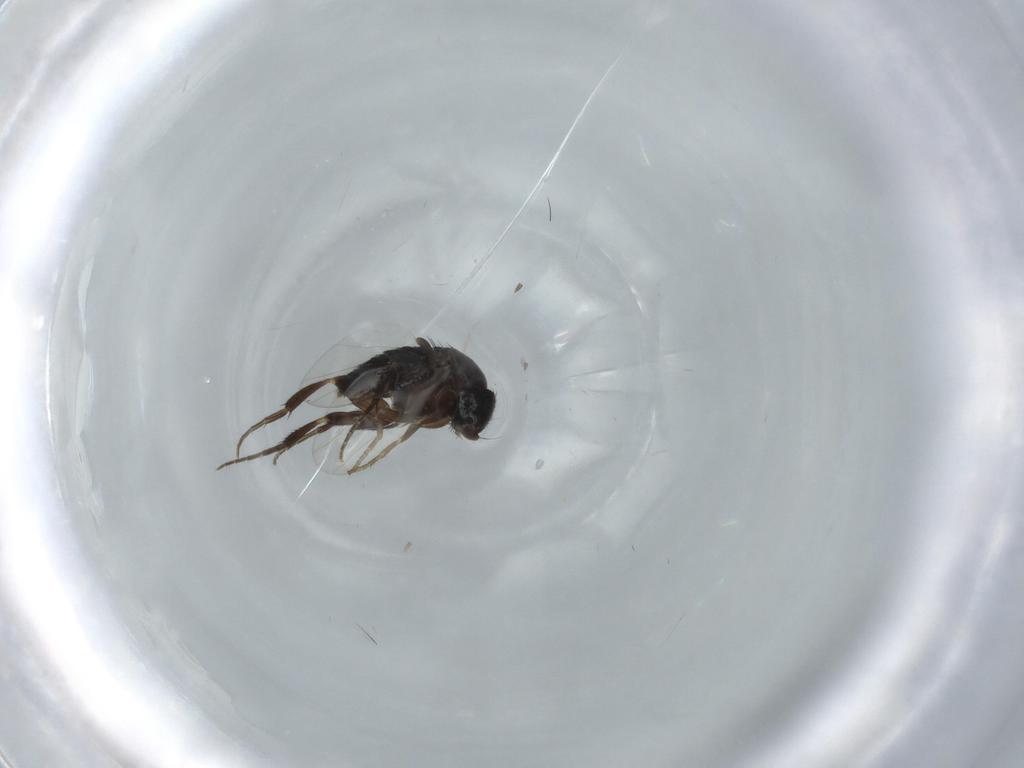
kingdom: Animalia
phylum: Arthropoda
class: Insecta
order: Diptera
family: Phoridae
